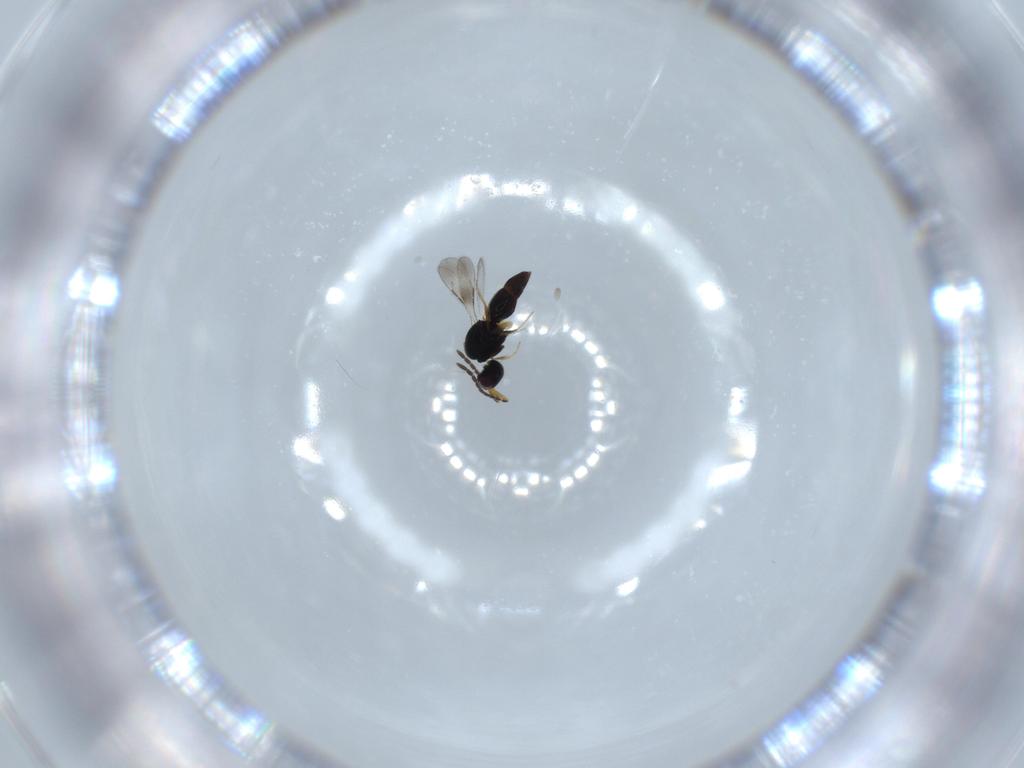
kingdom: Animalia
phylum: Arthropoda
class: Insecta
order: Hymenoptera
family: Ceraphronidae
